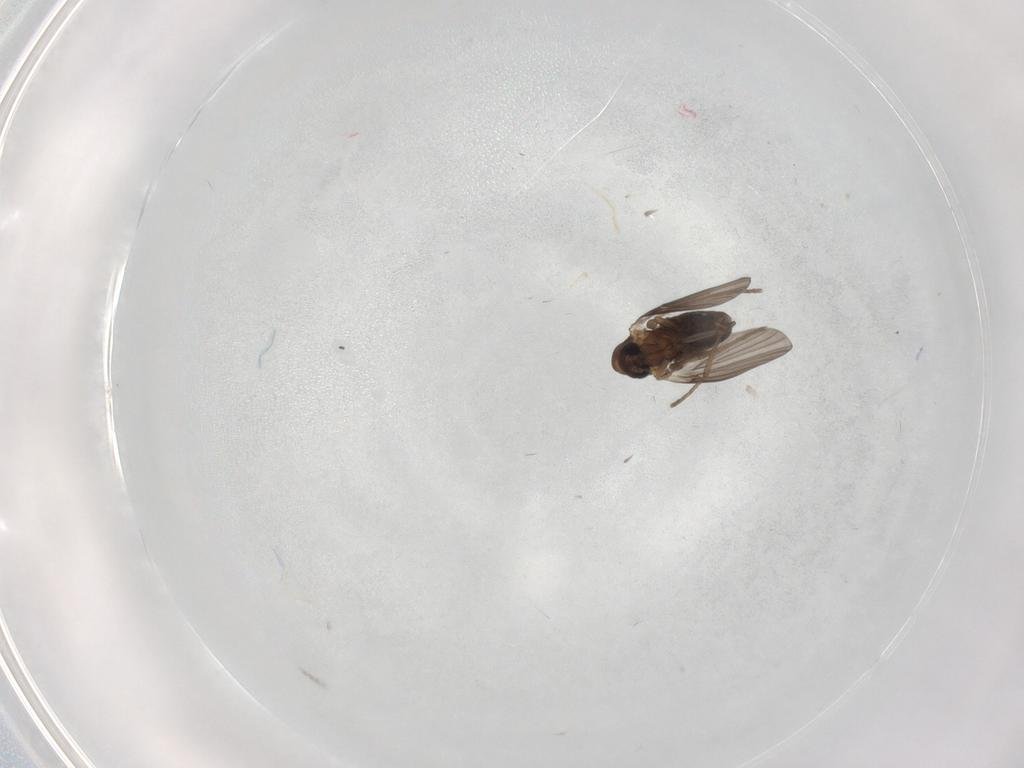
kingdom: Animalia
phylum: Arthropoda
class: Insecta
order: Diptera
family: Psychodidae
